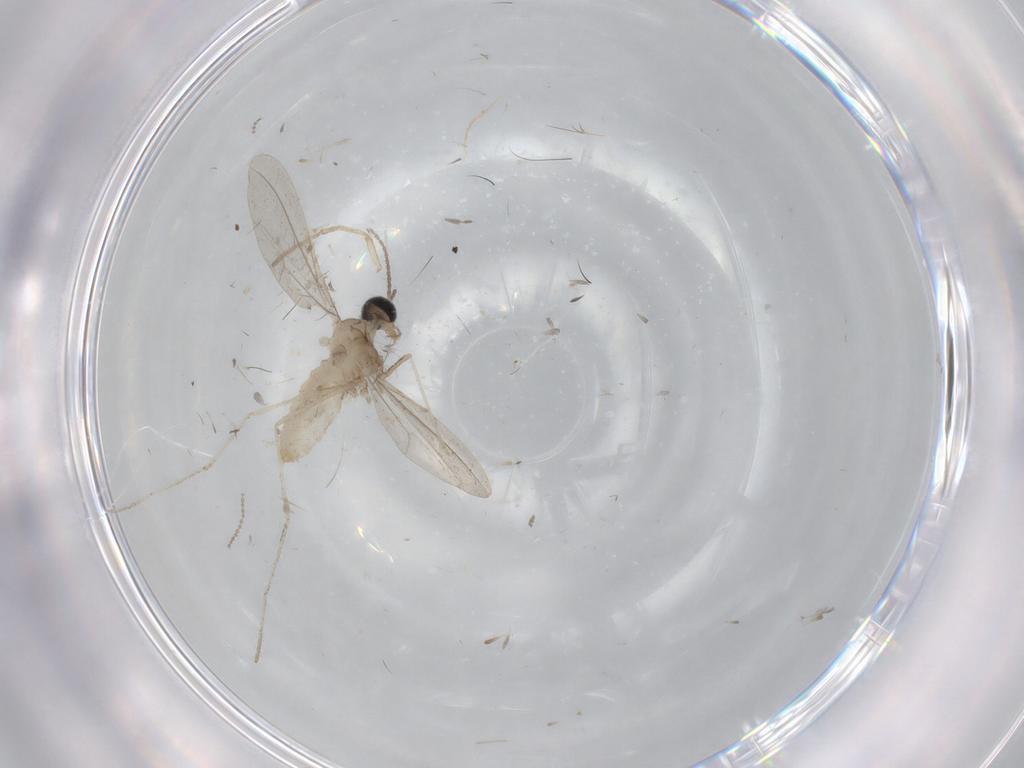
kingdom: Animalia
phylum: Arthropoda
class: Insecta
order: Diptera
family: Cecidomyiidae
